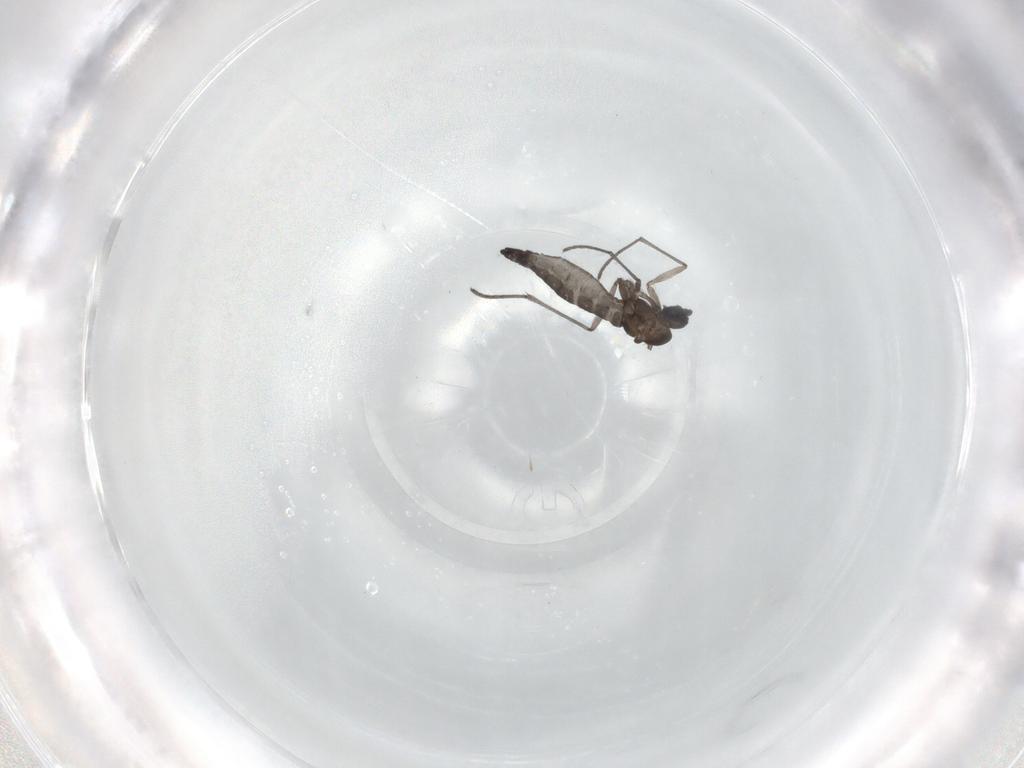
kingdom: Animalia
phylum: Arthropoda
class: Insecta
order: Diptera
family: Sciaridae
